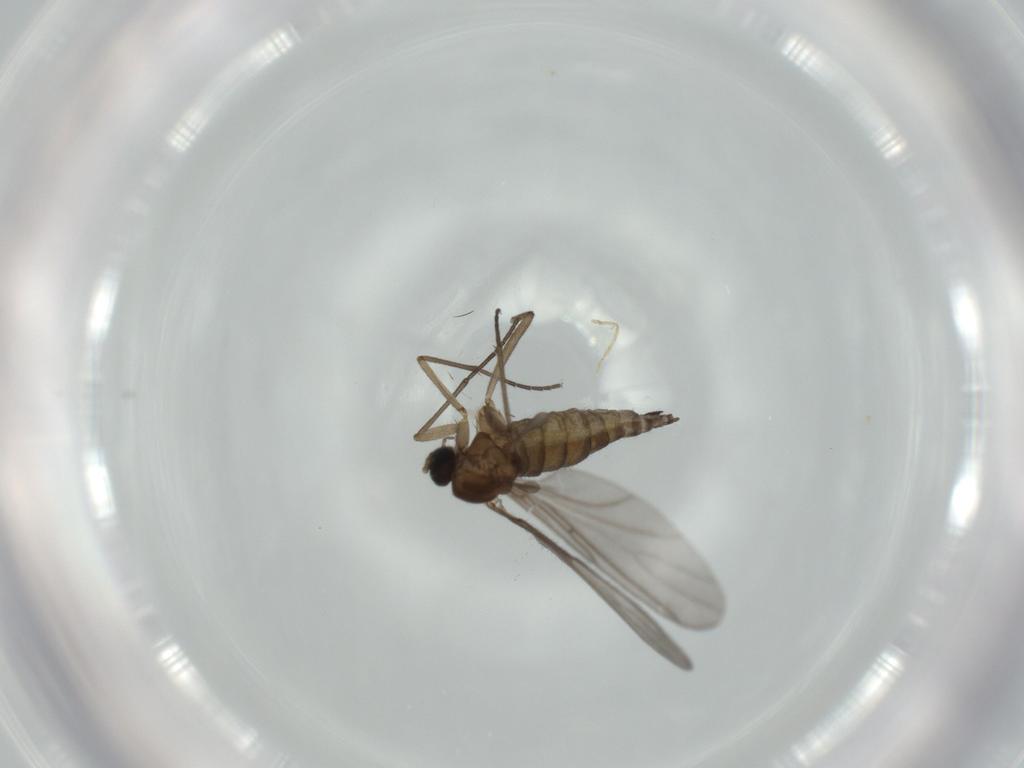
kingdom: Animalia
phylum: Arthropoda
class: Insecta
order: Diptera
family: Sciaridae
